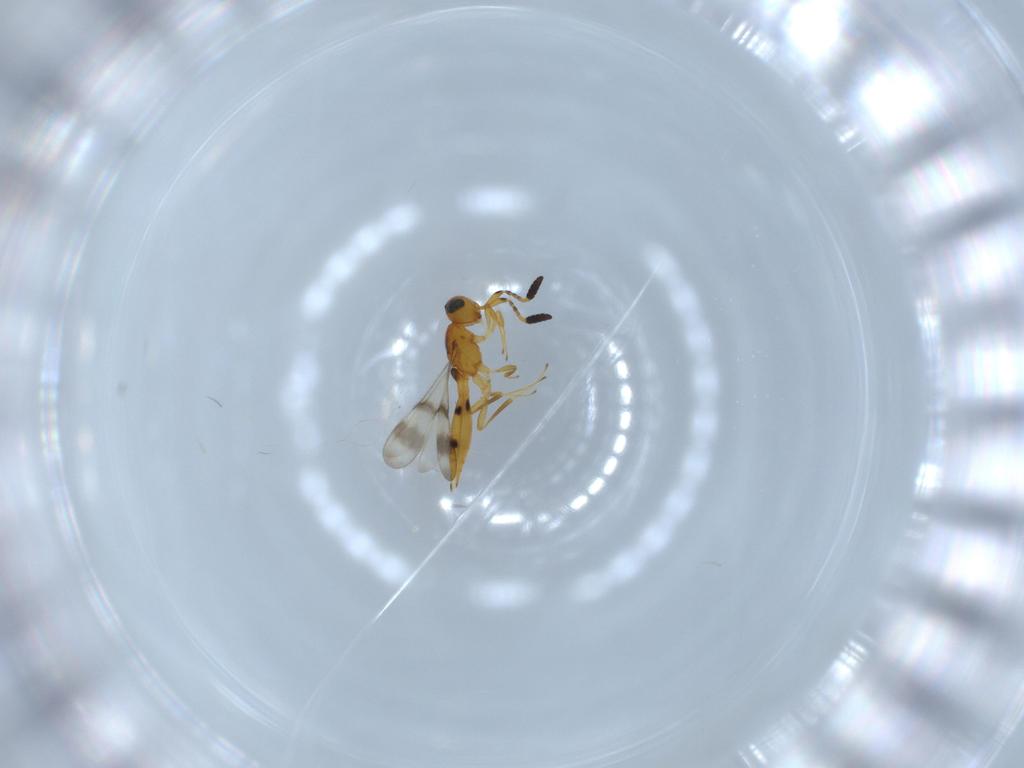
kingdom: Animalia
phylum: Arthropoda
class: Insecta
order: Hymenoptera
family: Scelionidae
